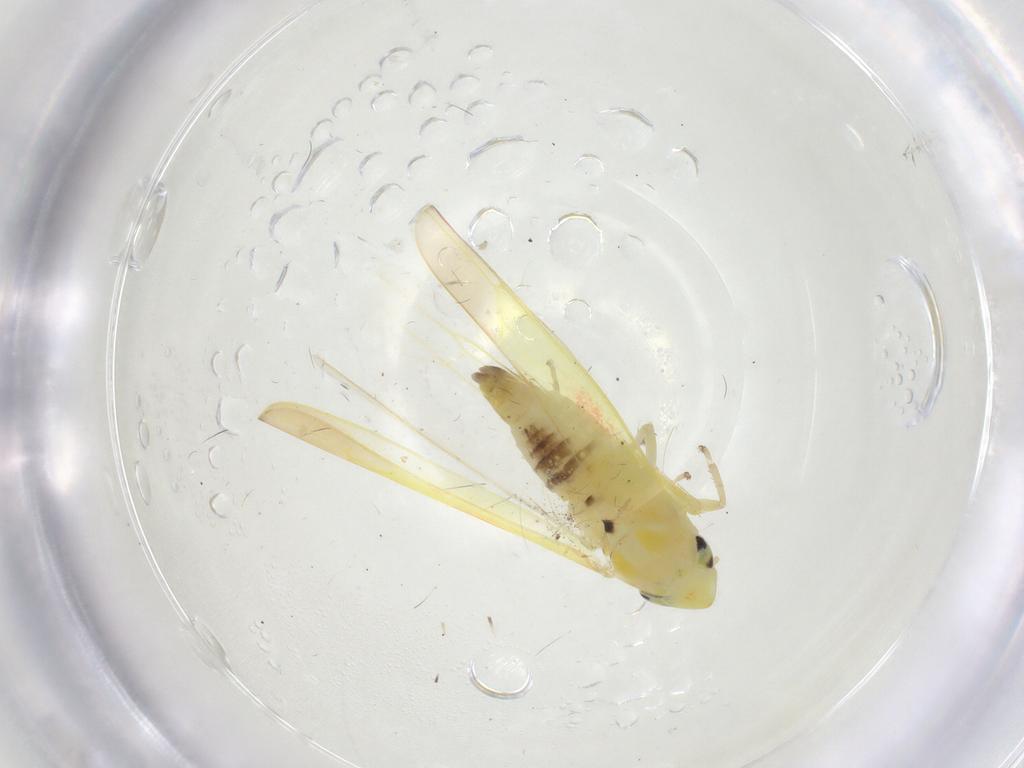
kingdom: Animalia
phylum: Arthropoda
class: Insecta
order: Hemiptera
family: Cicadellidae
